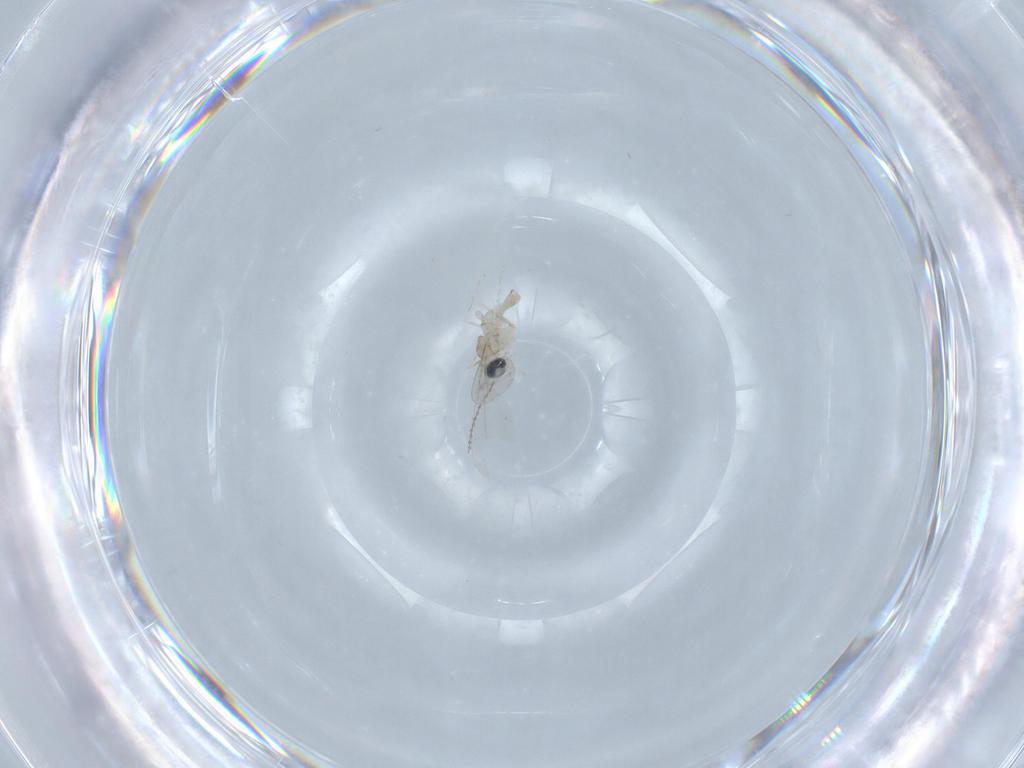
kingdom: Animalia
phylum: Arthropoda
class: Insecta
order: Diptera
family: Cecidomyiidae
